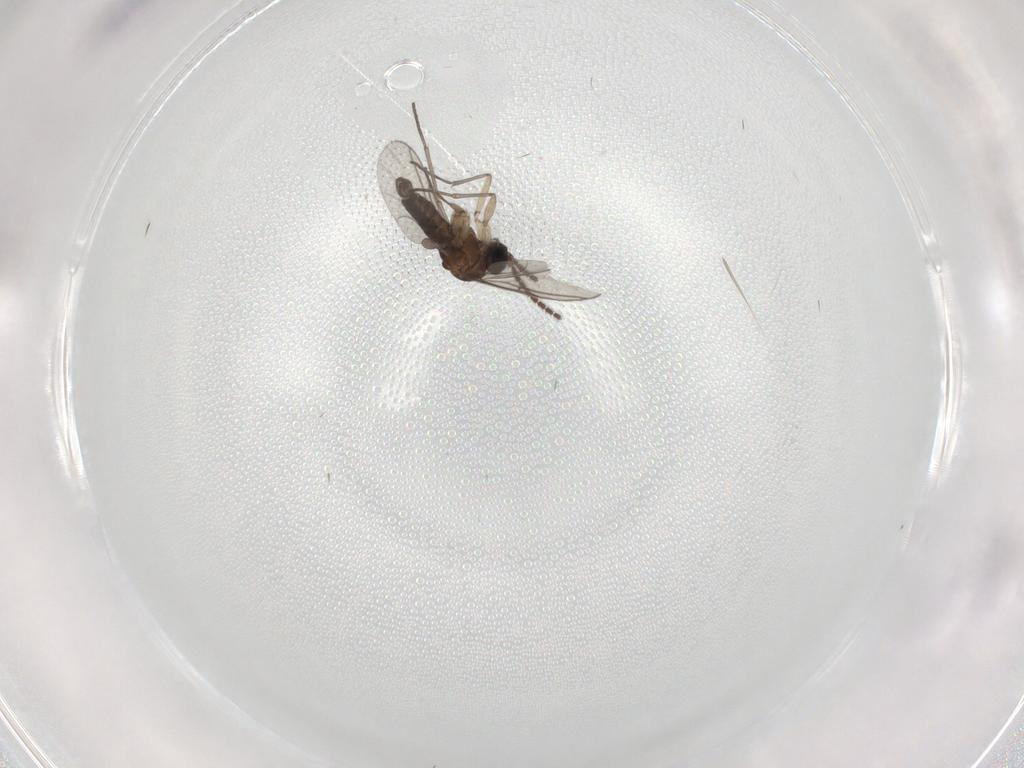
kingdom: Animalia
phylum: Arthropoda
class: Insecta
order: Diptera
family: Sciaridae
